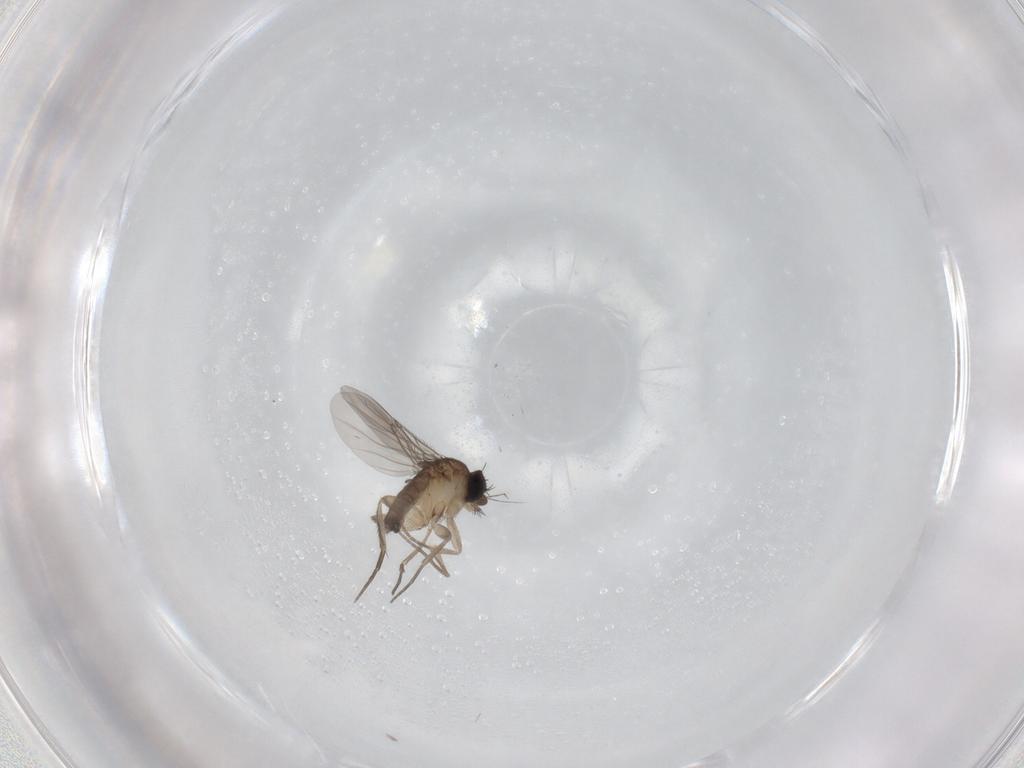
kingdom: Animalia
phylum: Arthropoda
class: Insecta
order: Diptera
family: Phoridae
